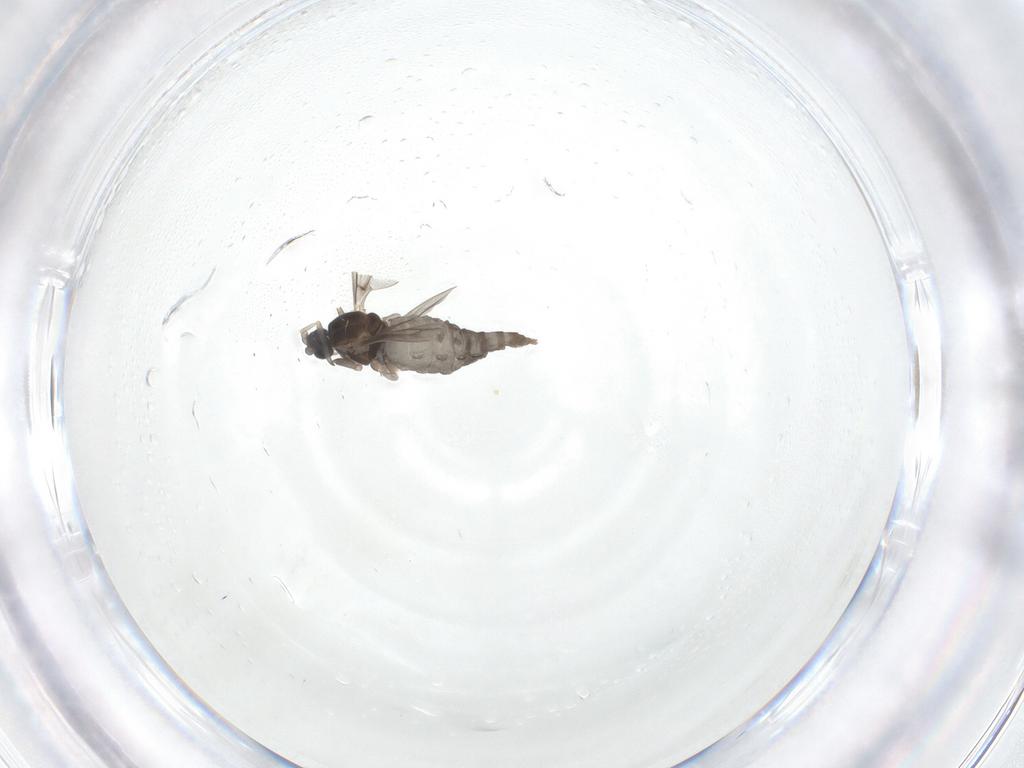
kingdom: Animalia
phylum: Arthropoda
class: Insecta
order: Diptera
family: Cecidomyiidae
